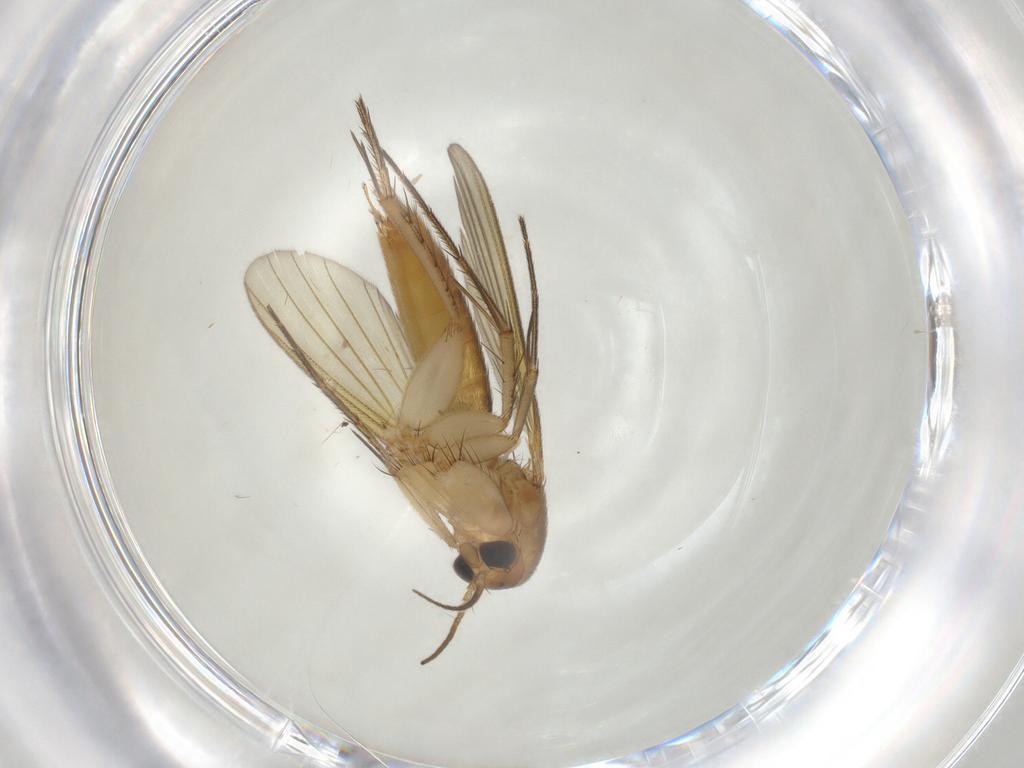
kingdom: Animalia
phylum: Arthropoda
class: Insecta
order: Diptera
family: Mycetophilidae
